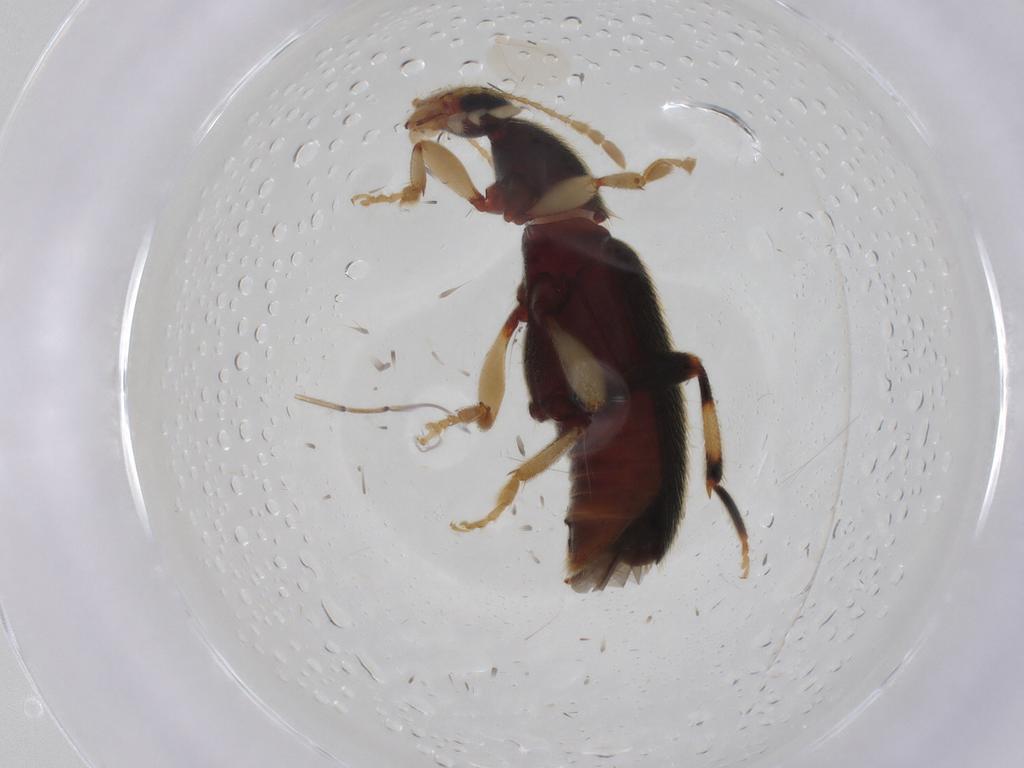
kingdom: Animalia
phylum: Arthropoda
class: Insecta
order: Coleoptera
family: Anthicidae
